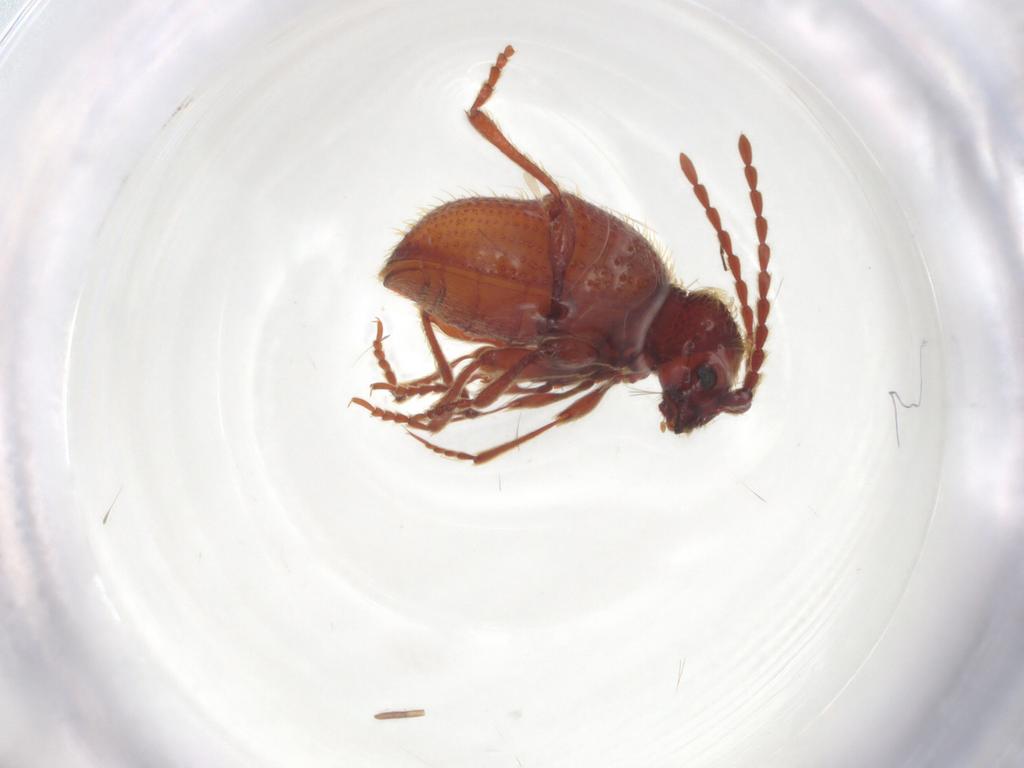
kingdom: Animalia
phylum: Arthropoda
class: Insecta
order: Coleoptera
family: Ptinidae
